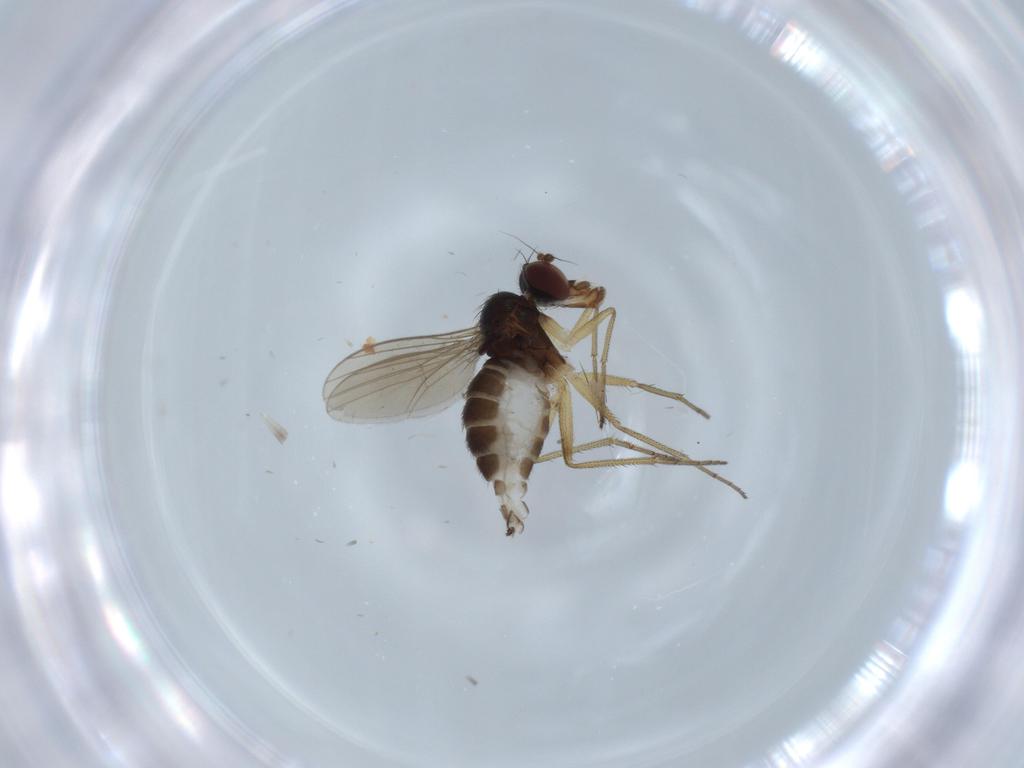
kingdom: Animalia
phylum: Arthropoda
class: Insecta
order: Diptera
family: Dolichopodidae
